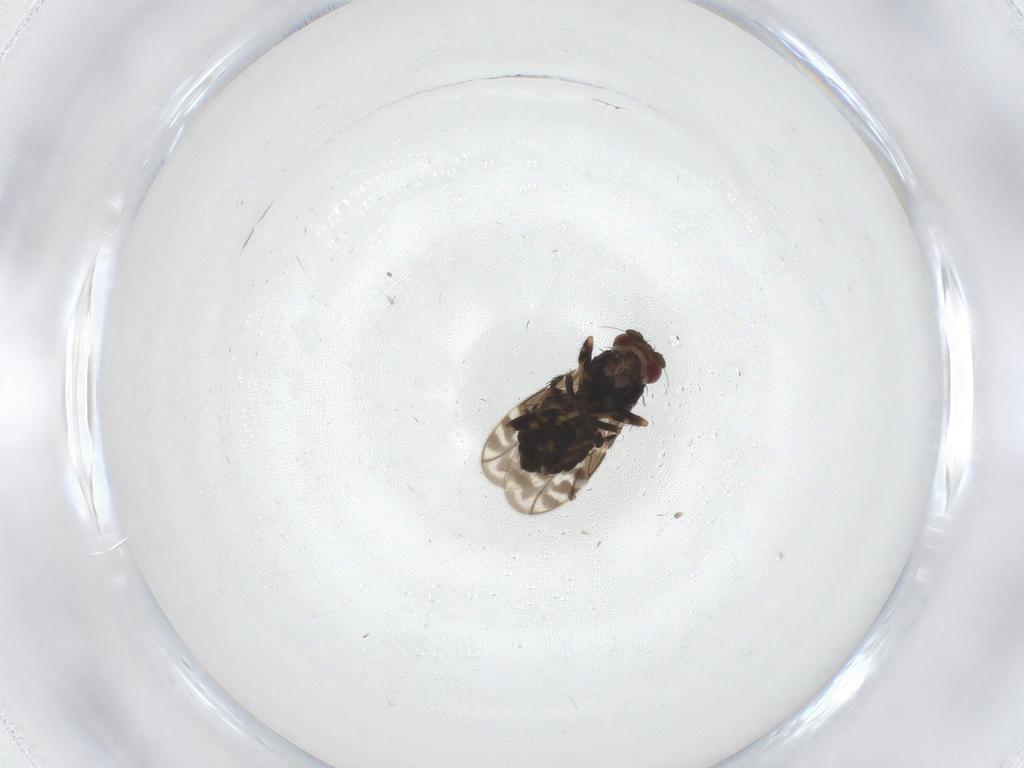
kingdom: Animalia
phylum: Arthropoda
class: Insecta
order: Diptera
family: Sphaeroceridae
